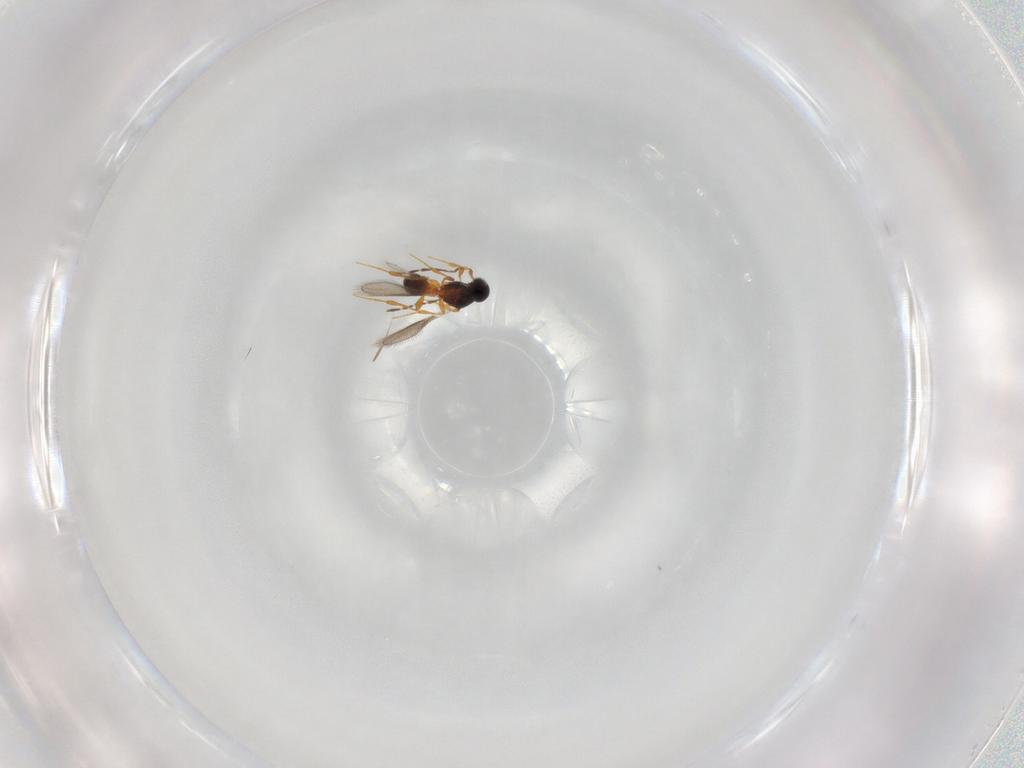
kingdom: Animalia
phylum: Arthropoda
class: Insecta
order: Hymenoptera
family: Platygastridae
